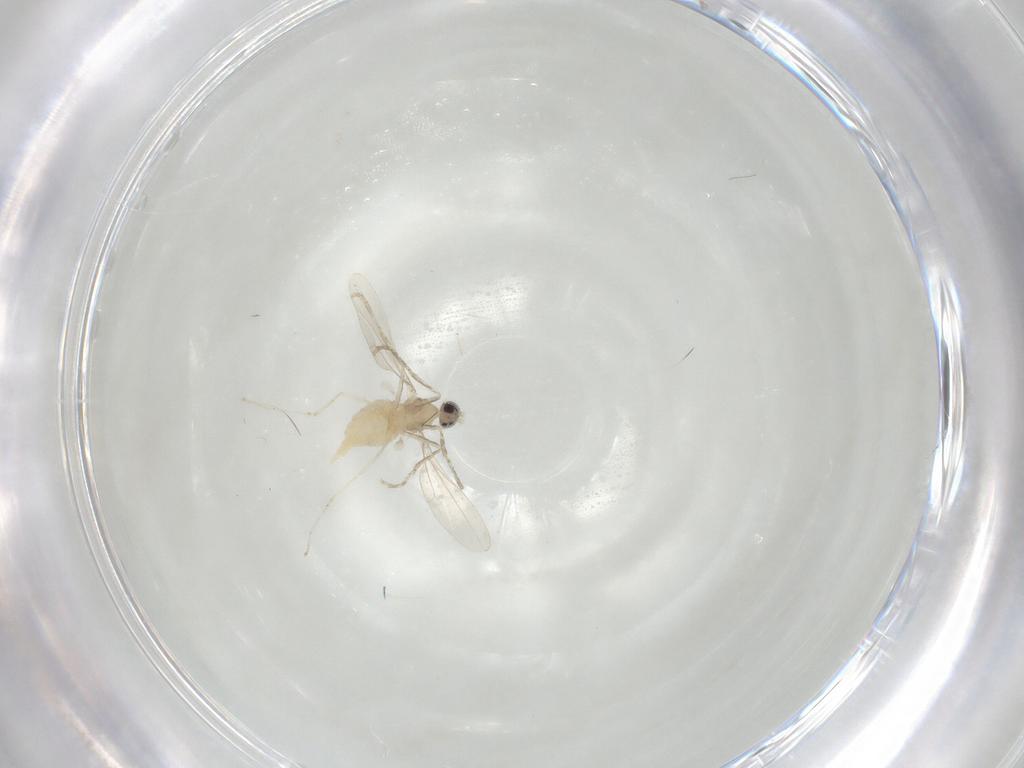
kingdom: Animalia
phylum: Arthropoda
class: Insecta
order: Diptera
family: Cecidomyiidae
